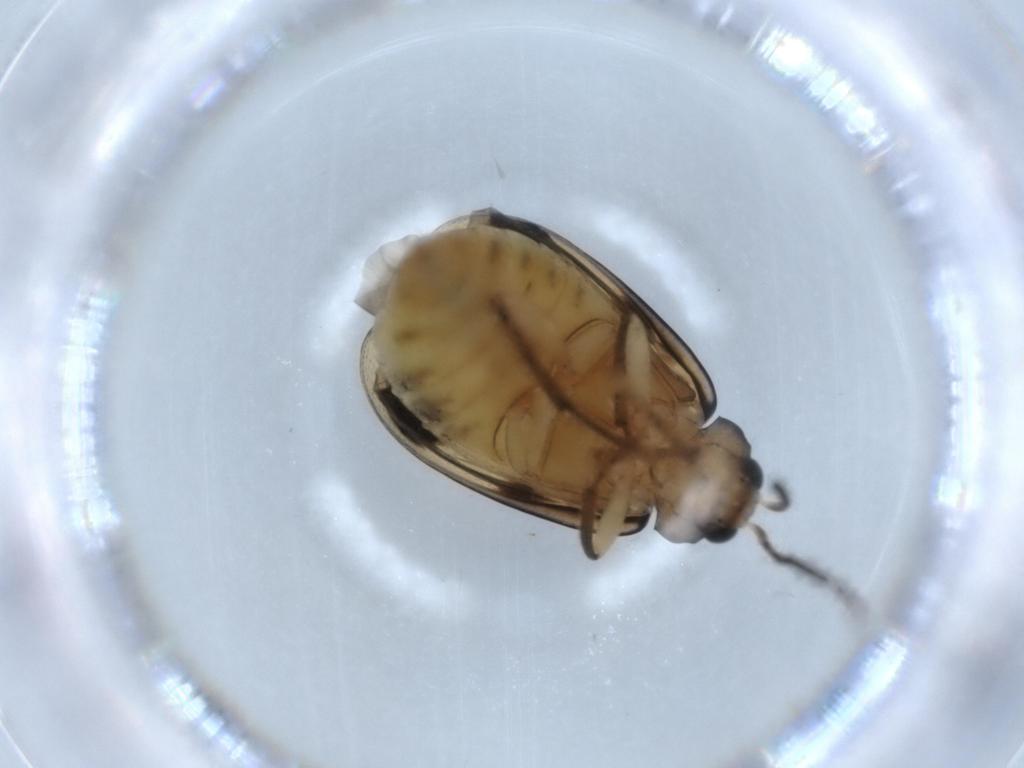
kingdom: Animalia
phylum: Arthropoda
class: Insecta
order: Coleoptera
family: Chrysomelidae
